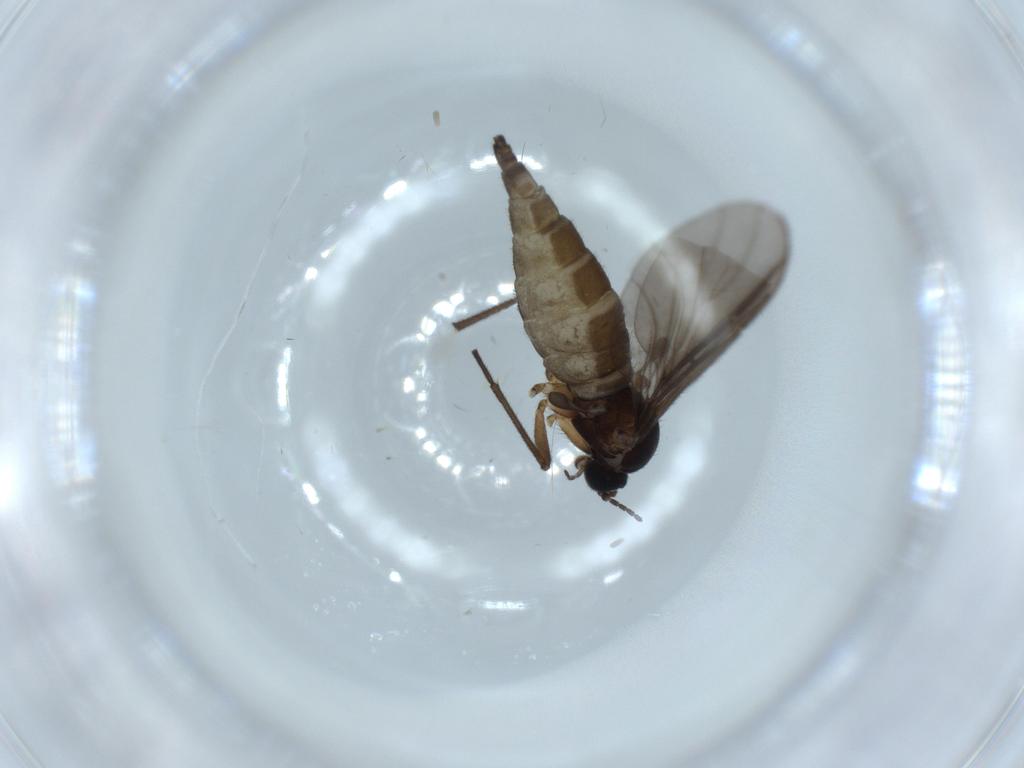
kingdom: Animalia
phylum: Arthropoda
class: Insecta
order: Diptera
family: Sciaridae
